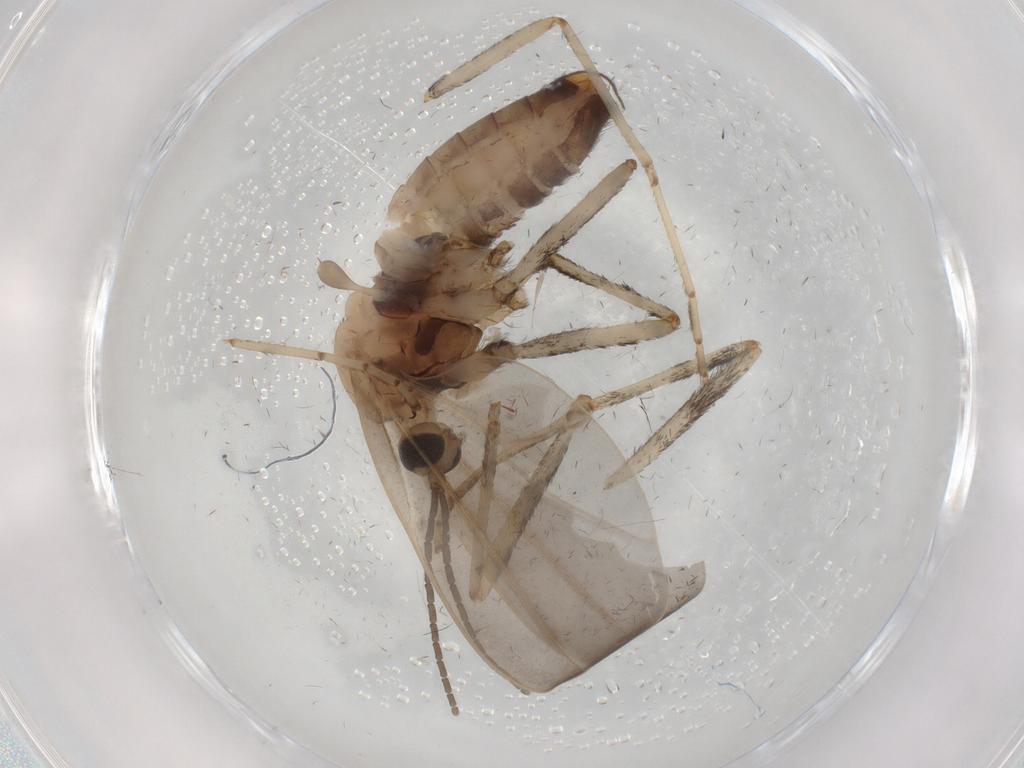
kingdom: Animalia
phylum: Arthropoda
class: Insecta
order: Diptera
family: Cecidomyiidae
